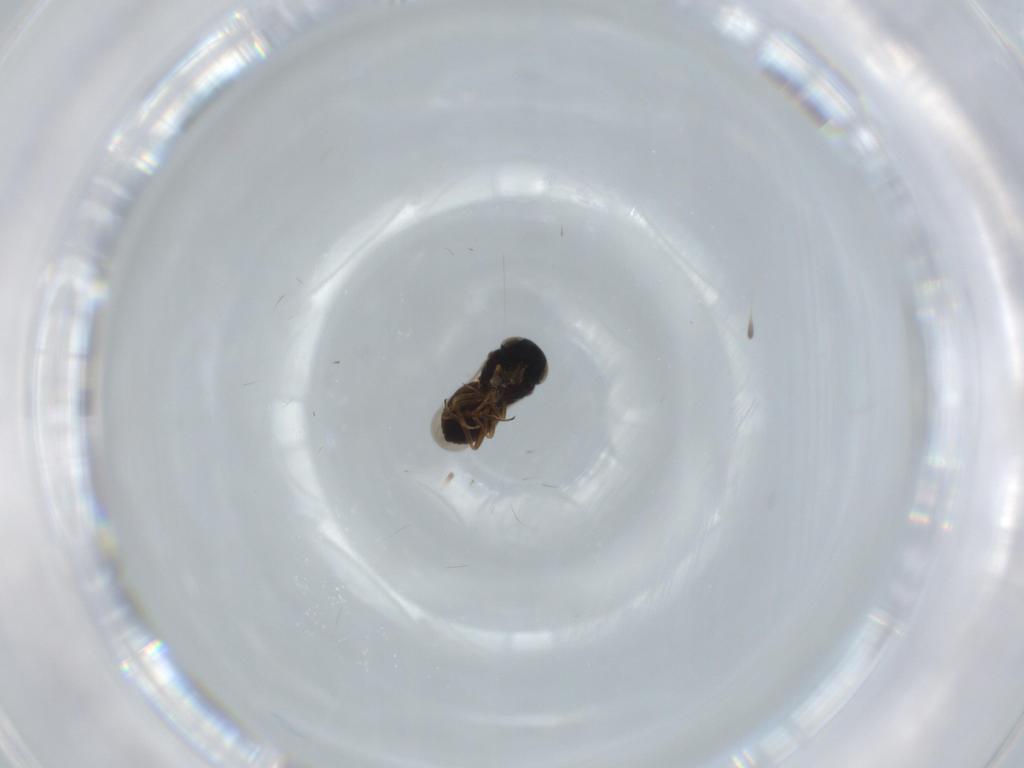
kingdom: Animalia
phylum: Arthropoda
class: Insecta
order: Hymenoptera
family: Scelionidae
